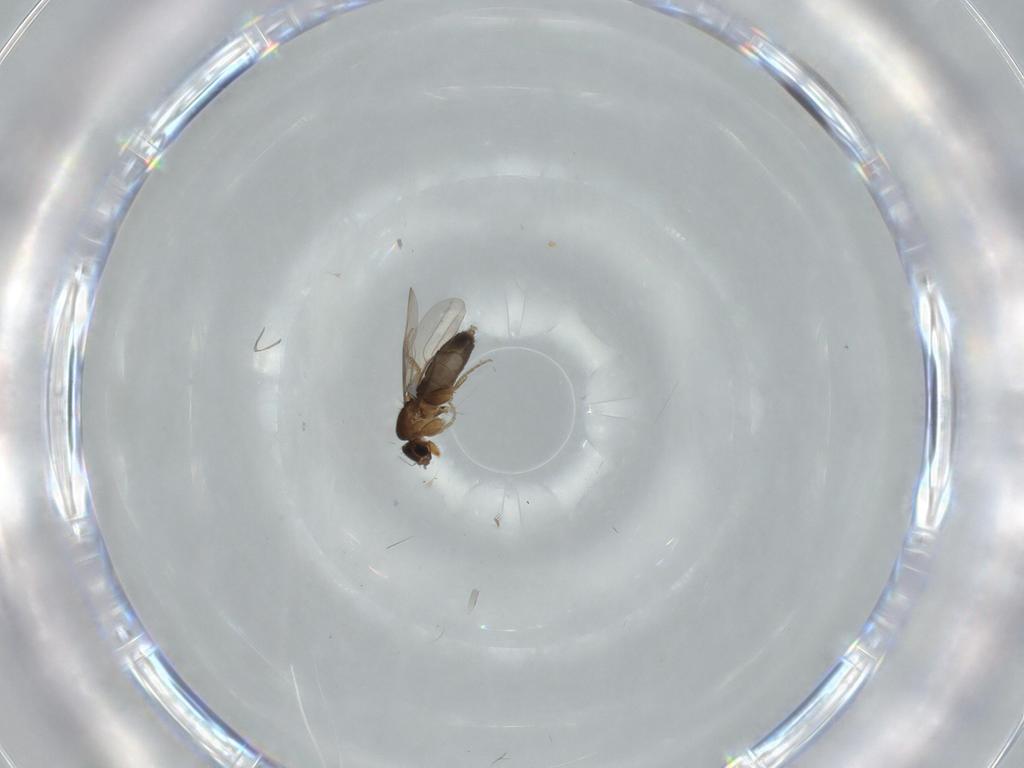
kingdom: Animalia
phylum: Arthropoda
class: Insecta
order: Diptera
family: Phoridae
